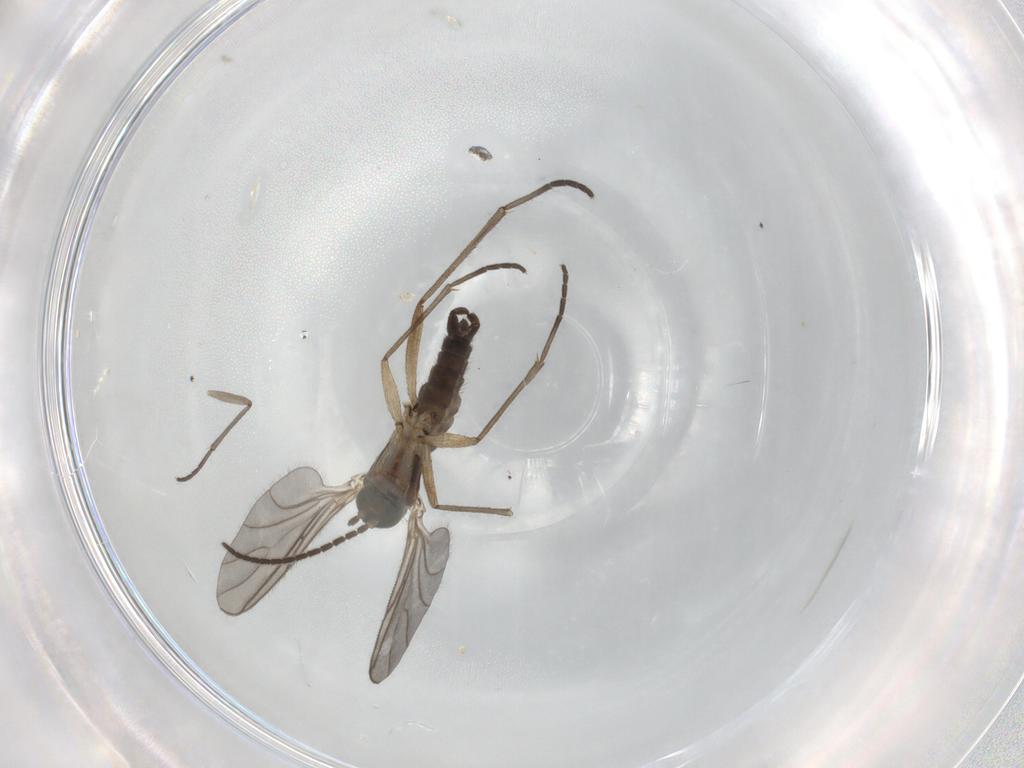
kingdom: Animalia
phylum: Arthropoda
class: Insecta
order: Diptera
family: Sciaridae
